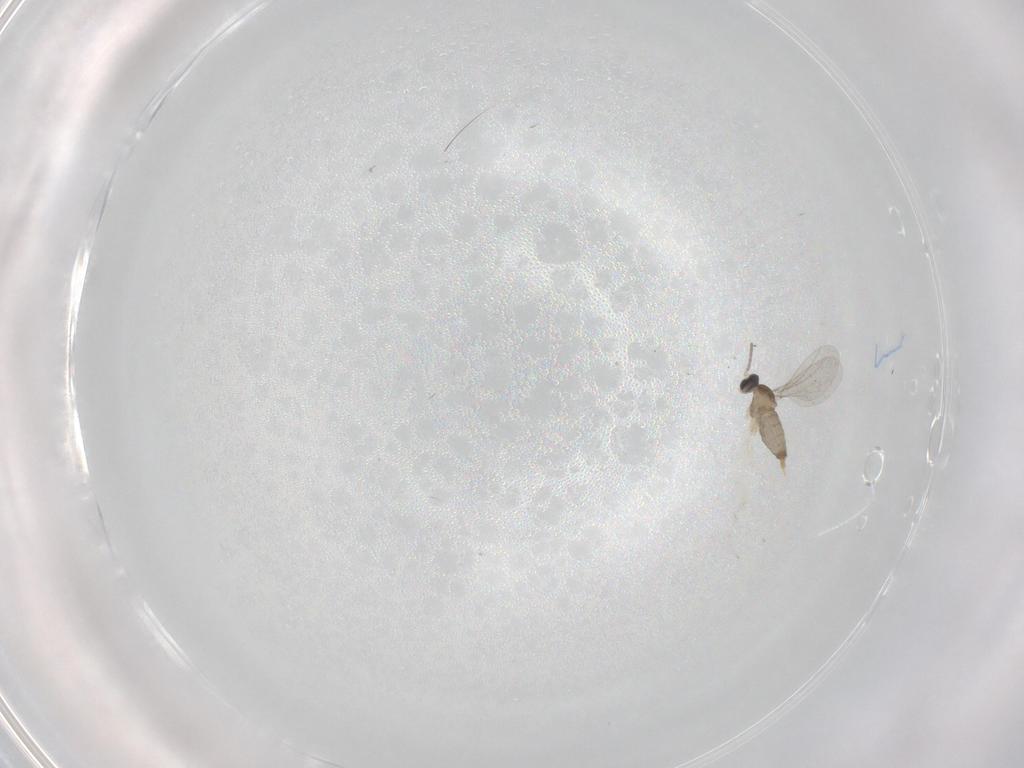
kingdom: Animalia
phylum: Arthropoda
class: Insecta
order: Diptera
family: Cecidomyiidae
